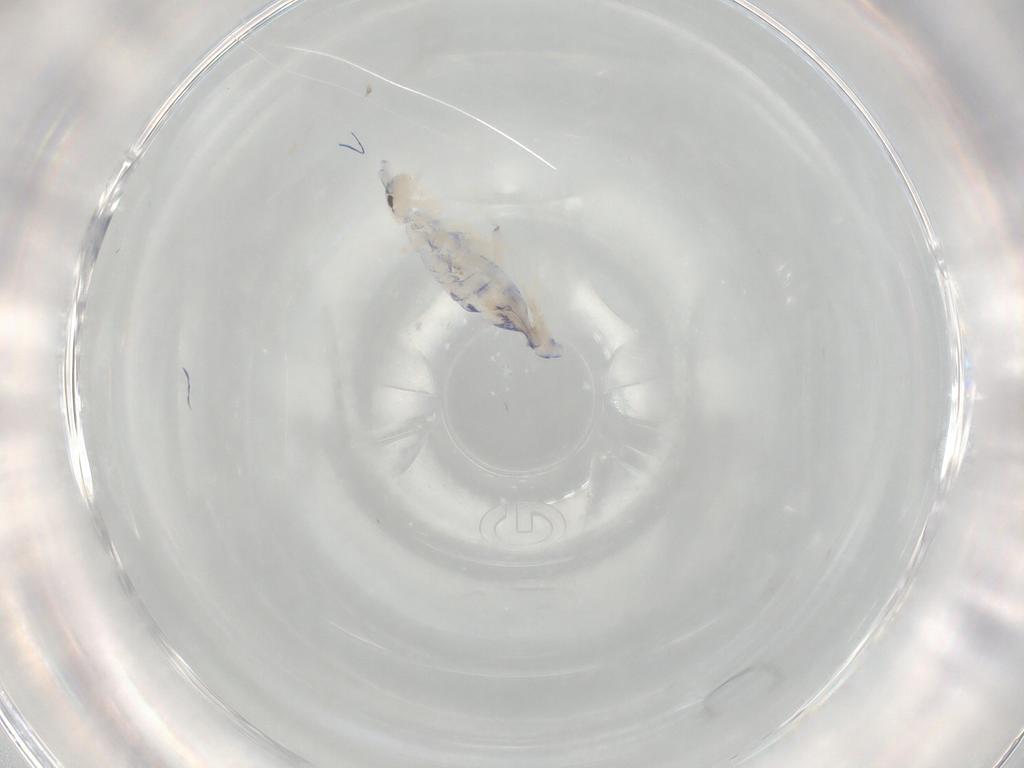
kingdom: Animalia
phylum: Arthropoda
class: Collembola
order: Entomobryomorpha
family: Entomobryidae
